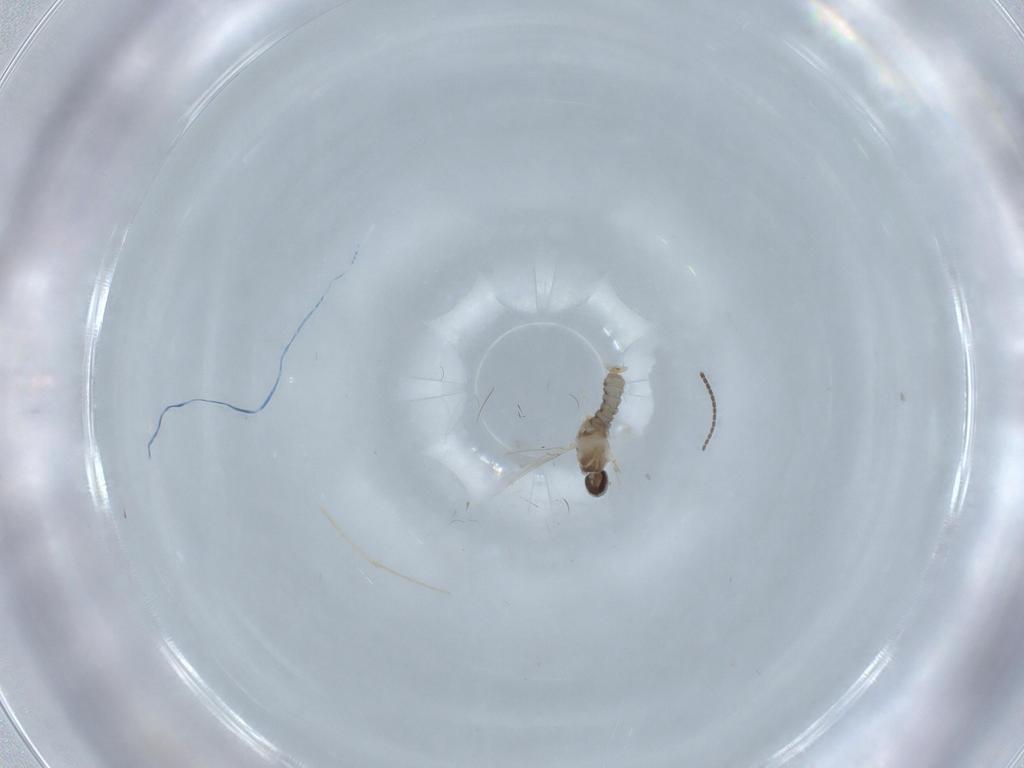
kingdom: Animalia
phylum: Arthropoda
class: Insecta
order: Diptera
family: Cecidomyiidae
